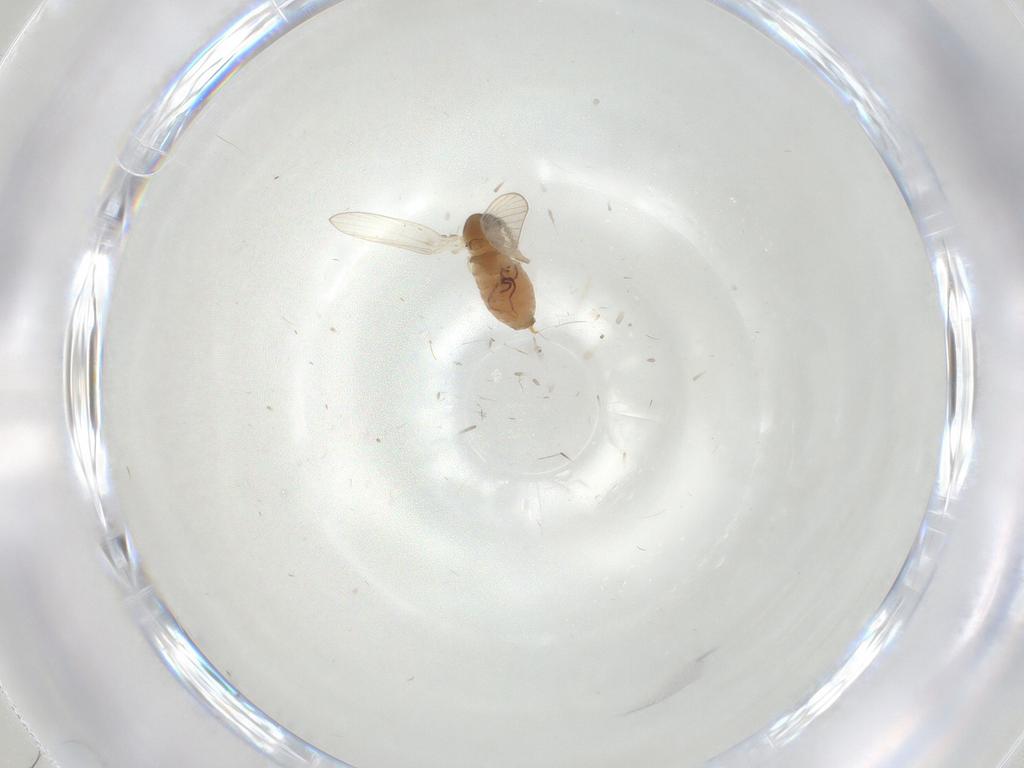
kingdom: Animalia
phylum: Arthropoda
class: Insecta
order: Diptera
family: Psychodidae
